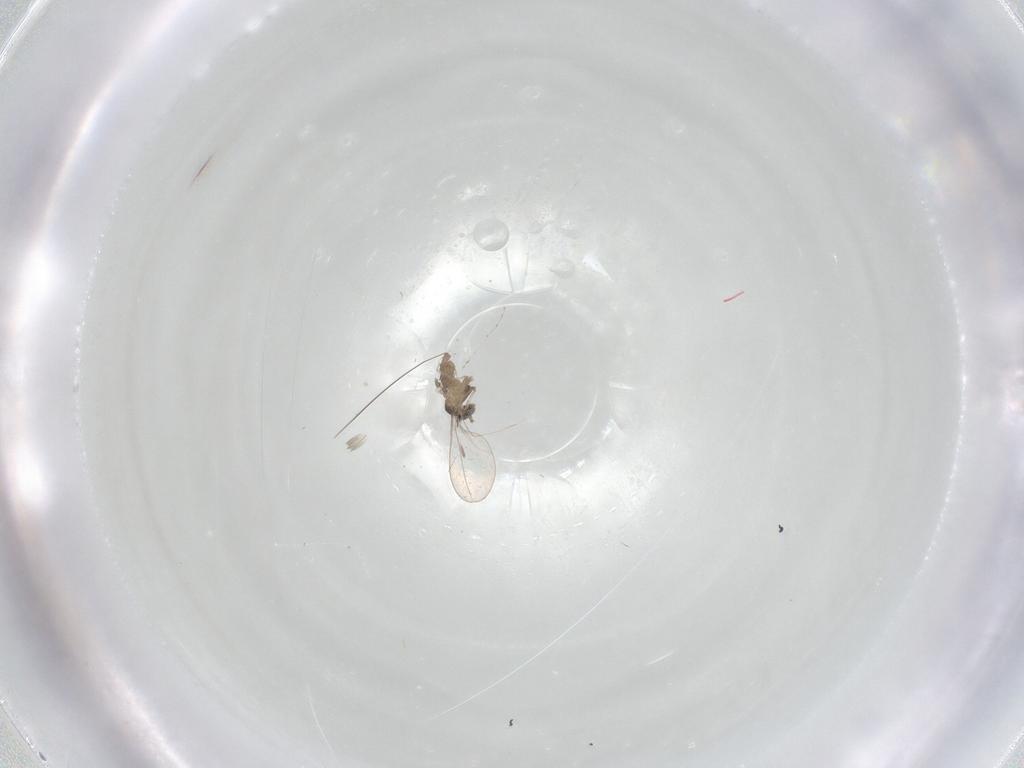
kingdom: Animalia
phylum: Arthropoda
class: Insecta
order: Diptera
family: Cecidomyiidae
